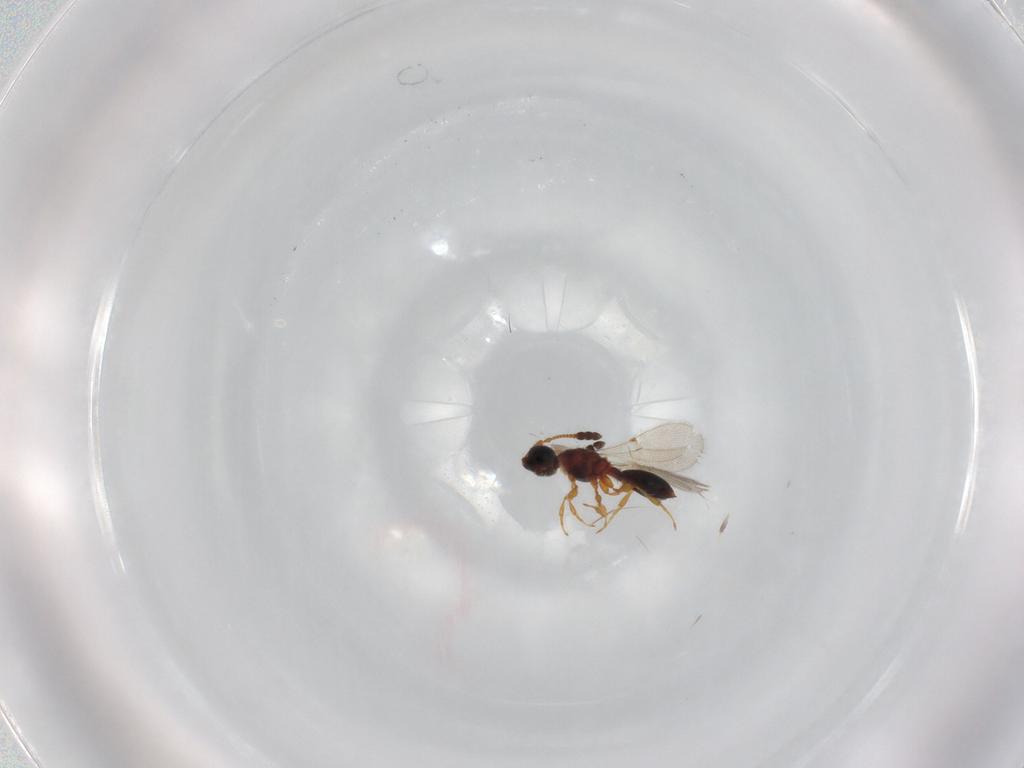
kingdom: Animalia
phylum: Arthropoda
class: Insecta
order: Hymenoptera
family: Diapriidae
